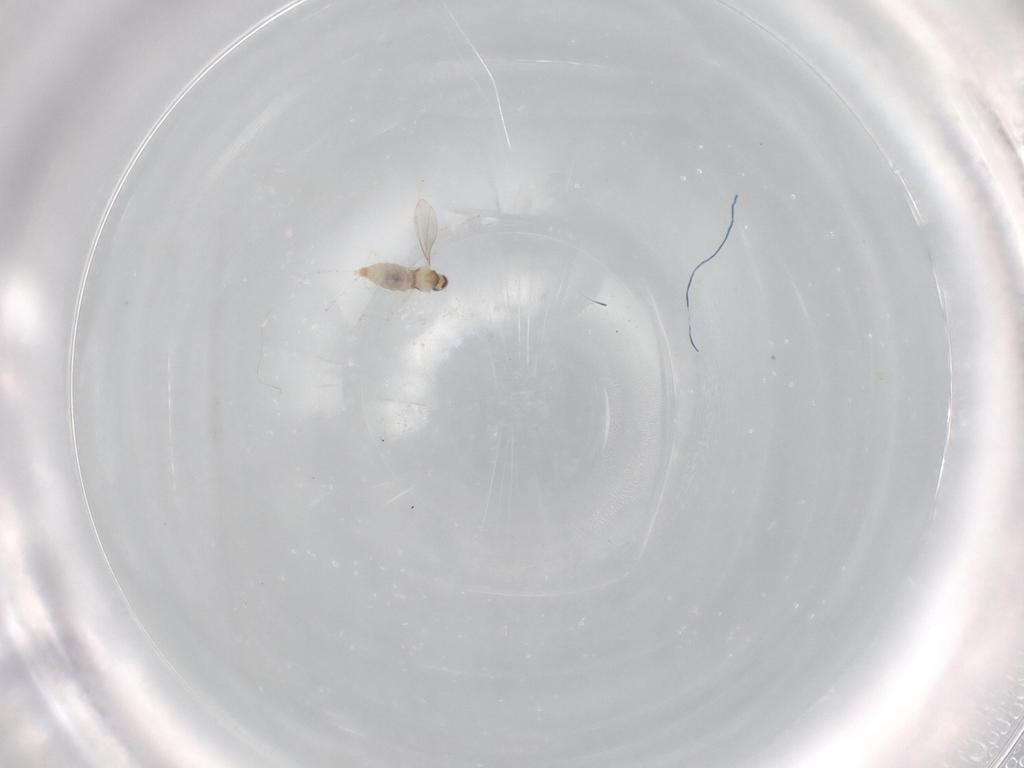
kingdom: Animalia
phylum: Arthropoda
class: Insecta
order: Diptera
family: Cecidomyiidae
